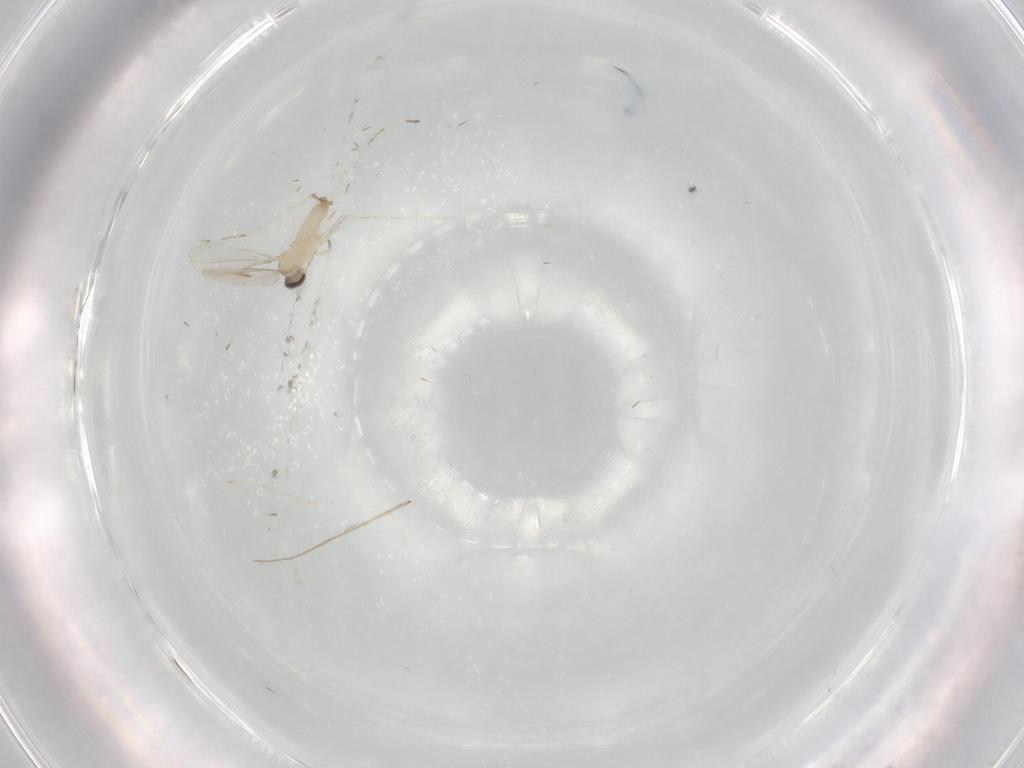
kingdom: Animalia
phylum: Arthropoda
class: Insecta
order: Diptera
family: Chironomidae
